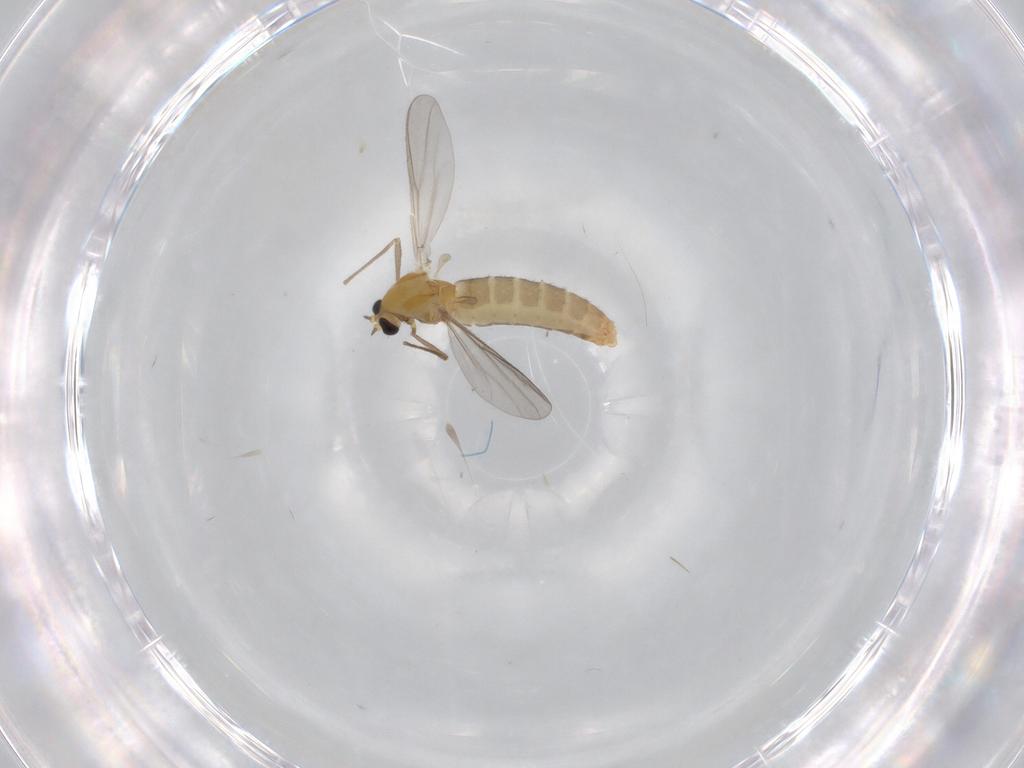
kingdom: Animalia
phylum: Arthropoda
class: Insecta
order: Diptera
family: Chironomidae
